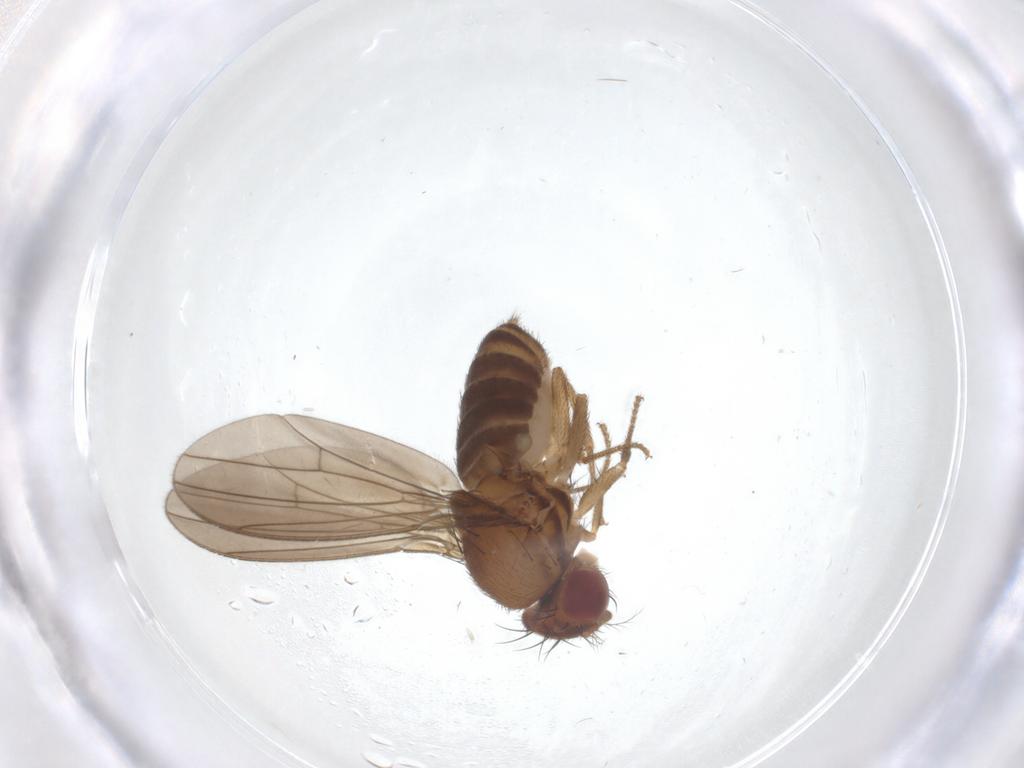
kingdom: Animalia
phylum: Arthropoda
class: Insecta
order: Diptera
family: Drosophilidae
